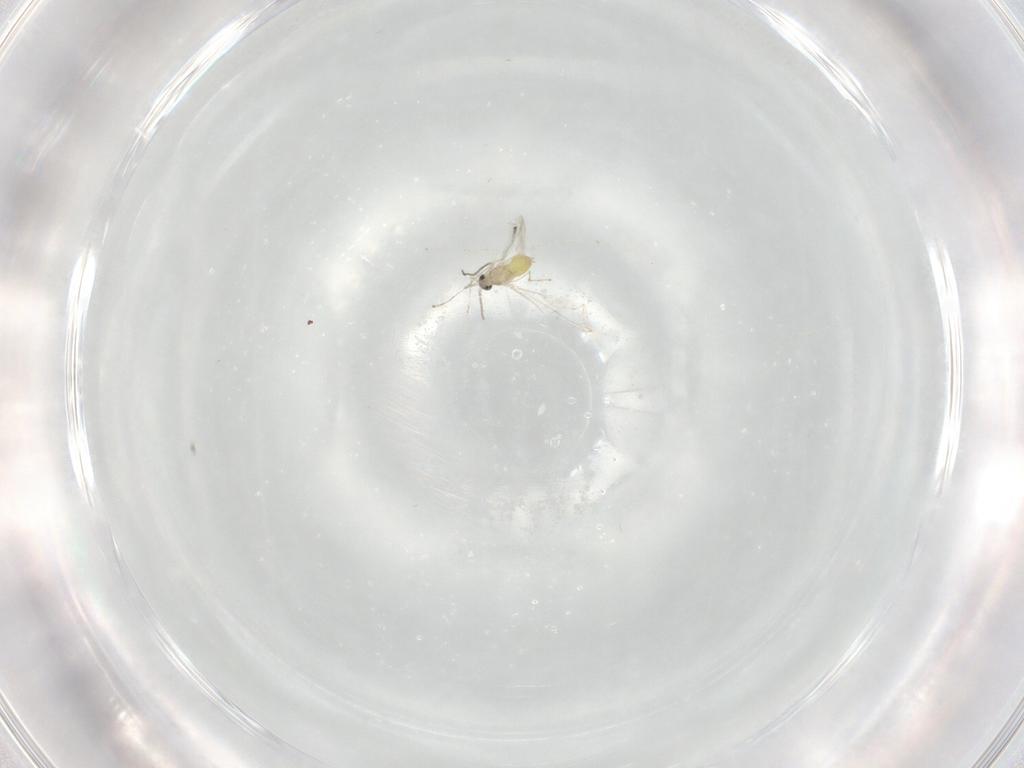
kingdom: Animalia
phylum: Arthropoda
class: Insecta
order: Diptera
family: Cecidomyiidae
